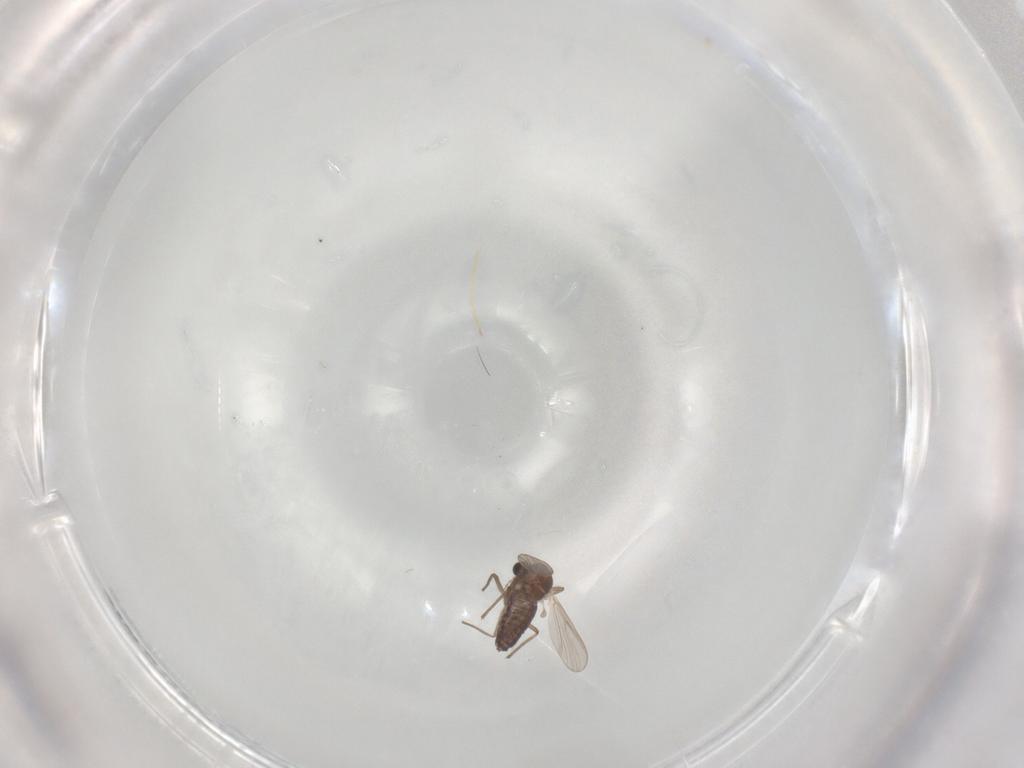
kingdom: Animalia
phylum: Arthropoda
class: Insecta
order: Diptera
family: Chironomidae
